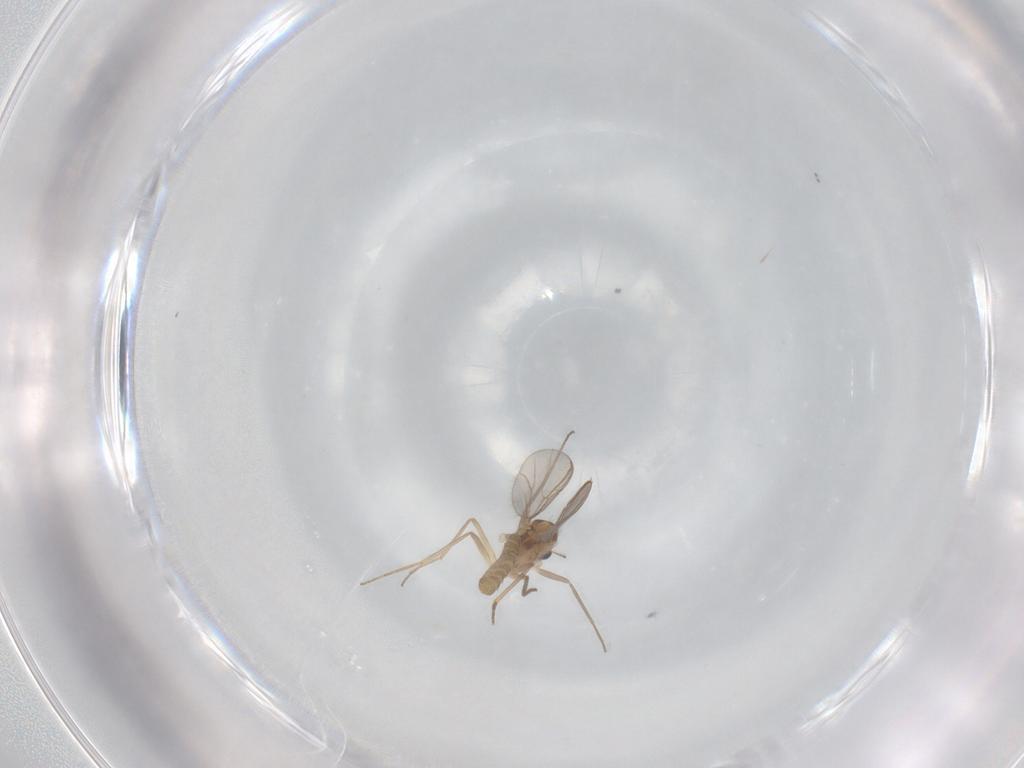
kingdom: Animalia
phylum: Arthropoda
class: Insecta
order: Diptera
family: Chironomidae
